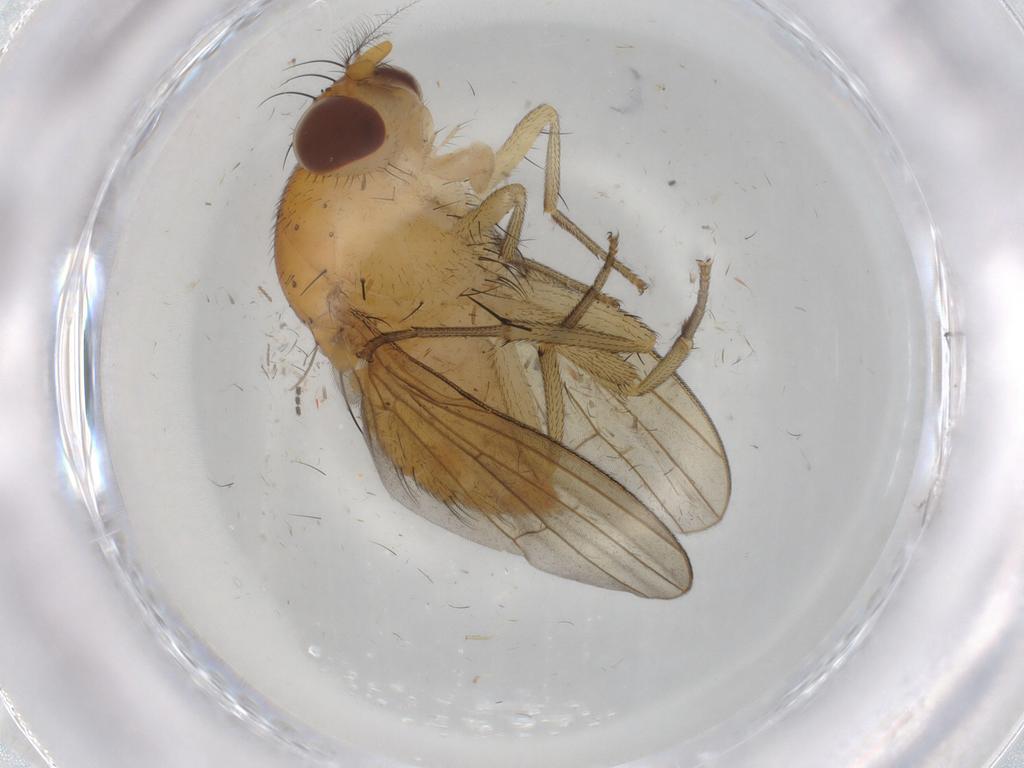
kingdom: Animalia
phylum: Arthropoda
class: Insecta
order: Diptera
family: Phoridae
